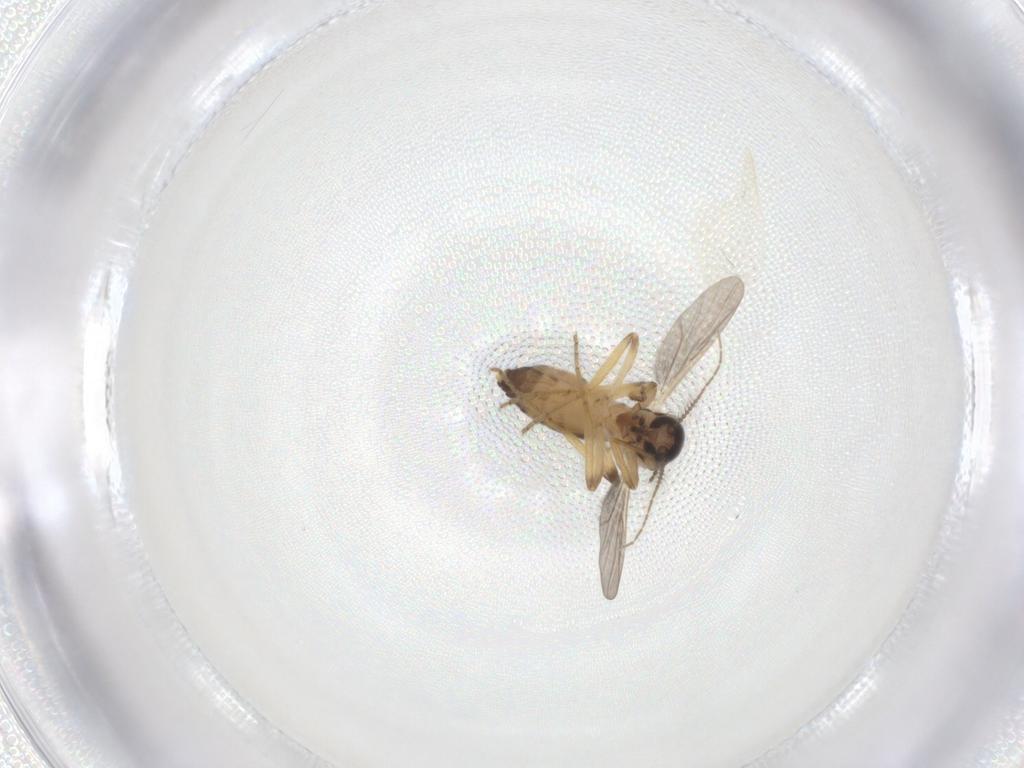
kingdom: Animalia
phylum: Arthropoda
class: Insecta
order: Diptera
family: Ceratopogonidae
